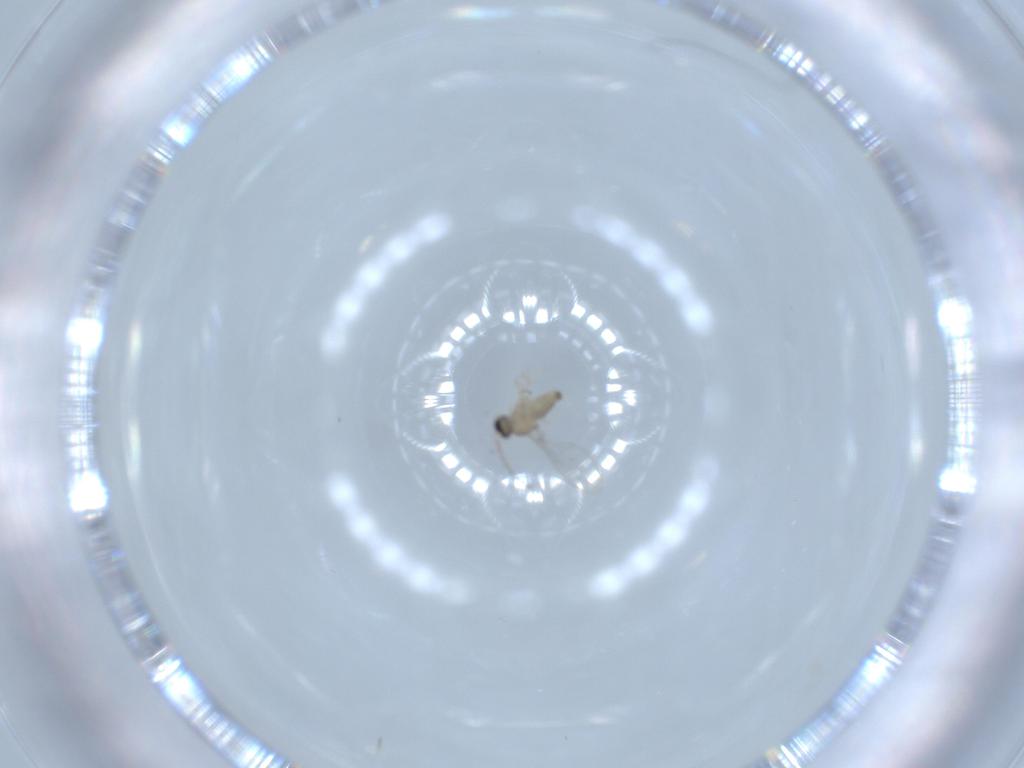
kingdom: Animalia
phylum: Arthropoda
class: Insecta
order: Diptera
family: Cecidomyiidae
